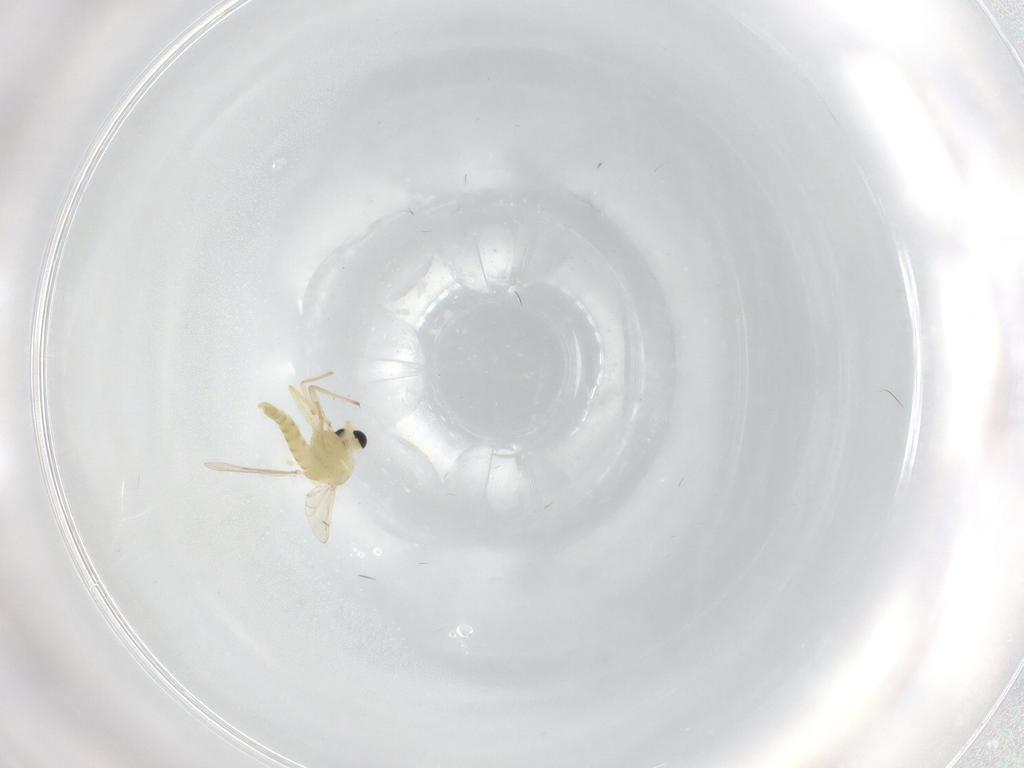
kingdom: Animalia
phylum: Arthropoda
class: Insecta
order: Diptera
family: Chironomidae
